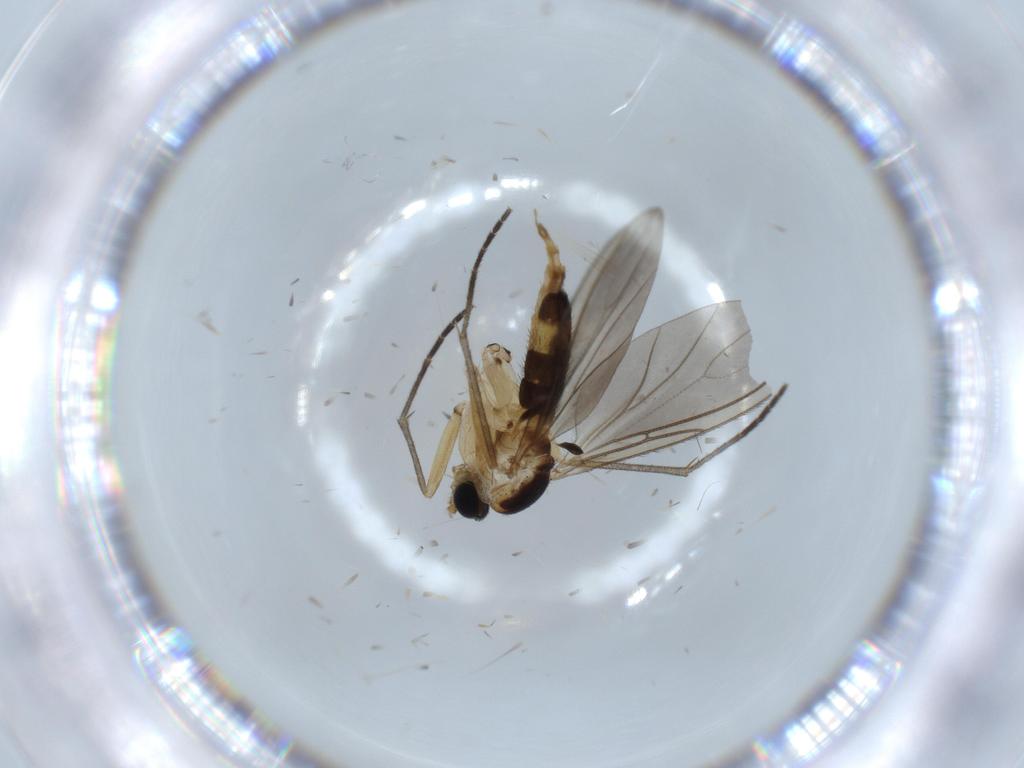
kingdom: Animalia
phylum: Arthropoda
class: Insecta
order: Diptera
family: Sciaridae
